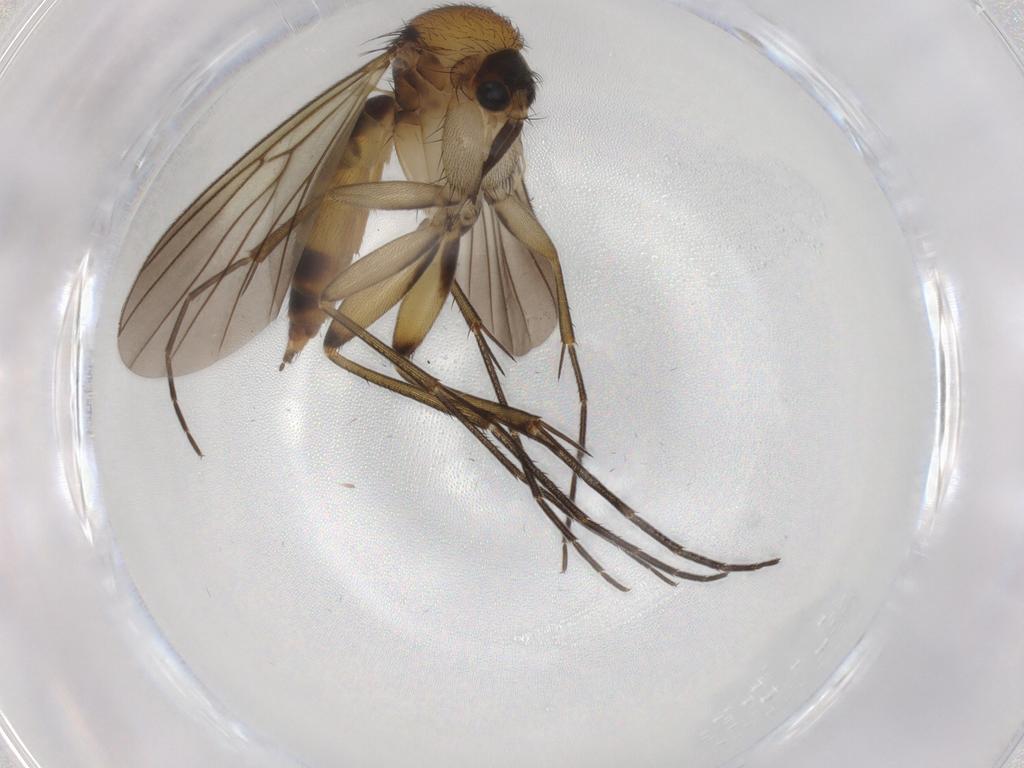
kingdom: Animalia
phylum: Arthropoda
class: Insecta
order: Diptera
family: Mycetophilidae
